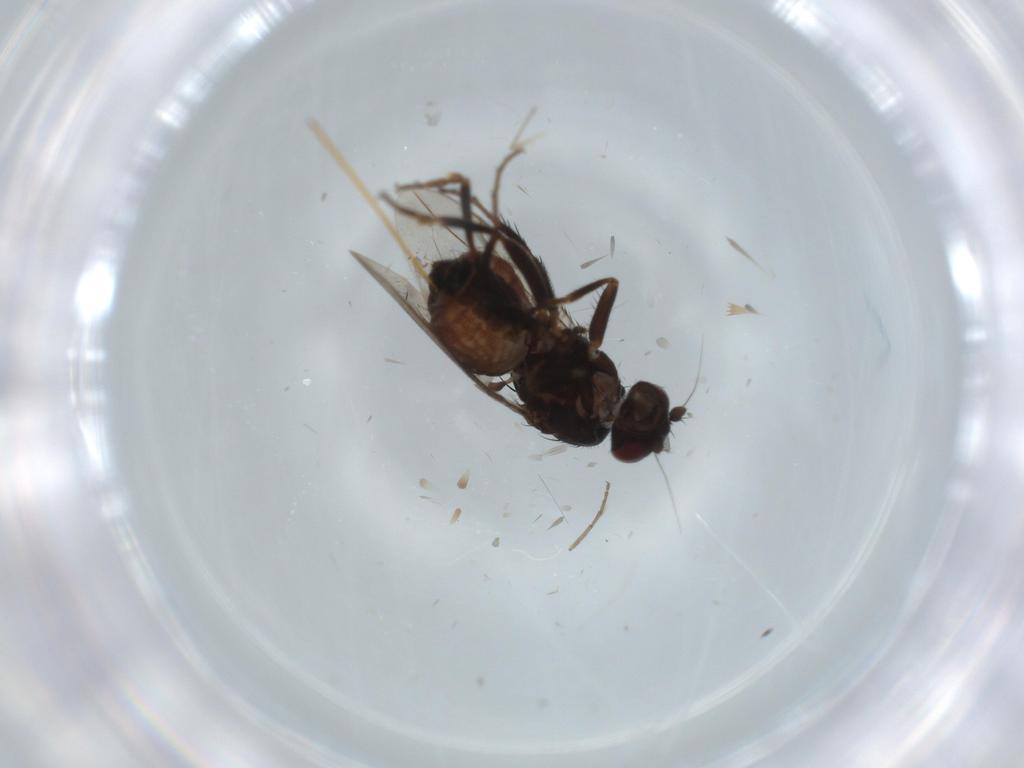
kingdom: Animalia
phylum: Arthropoda
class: Insecta
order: Diptera
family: Sphaeroceridae
